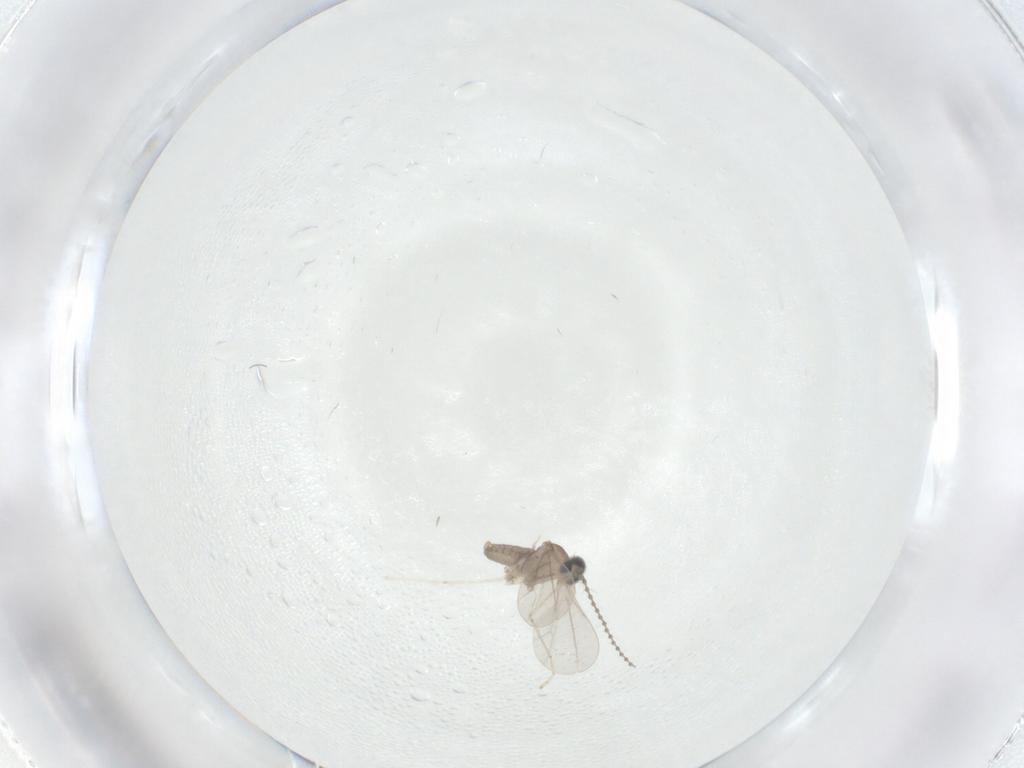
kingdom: Animalia
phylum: Arthropoda
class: Insecta
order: Diptera
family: Cecidomyiidae
